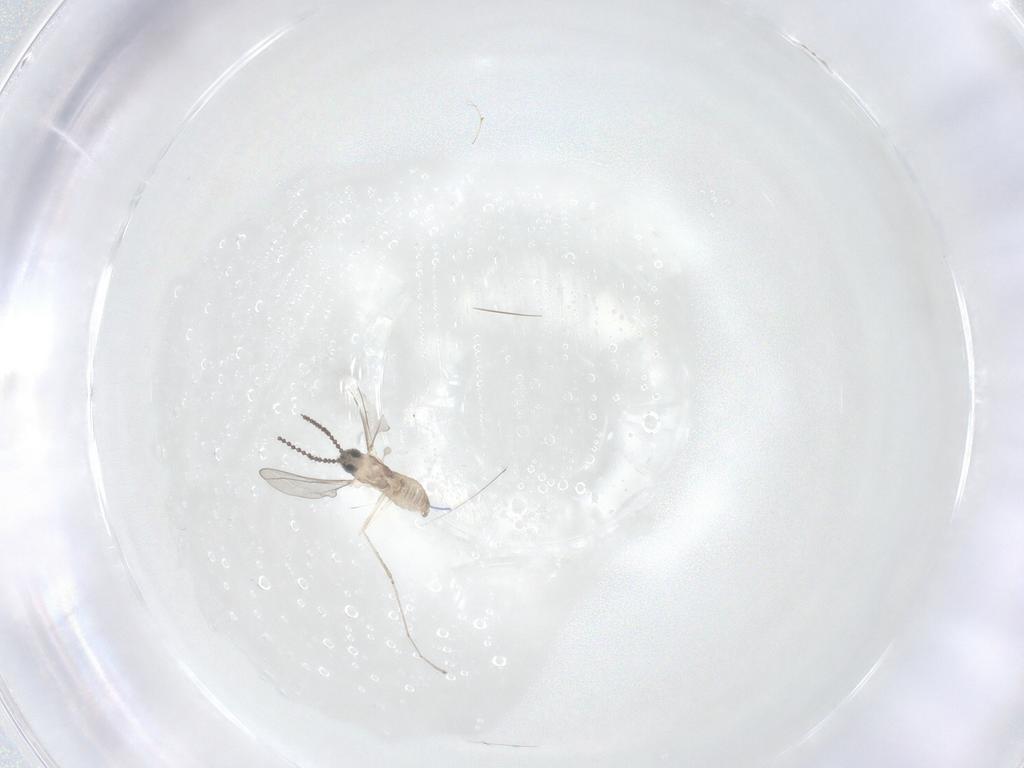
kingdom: Animalia
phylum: Arthropoda
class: Insecta
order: Diptera
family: Cecidomyiidae
